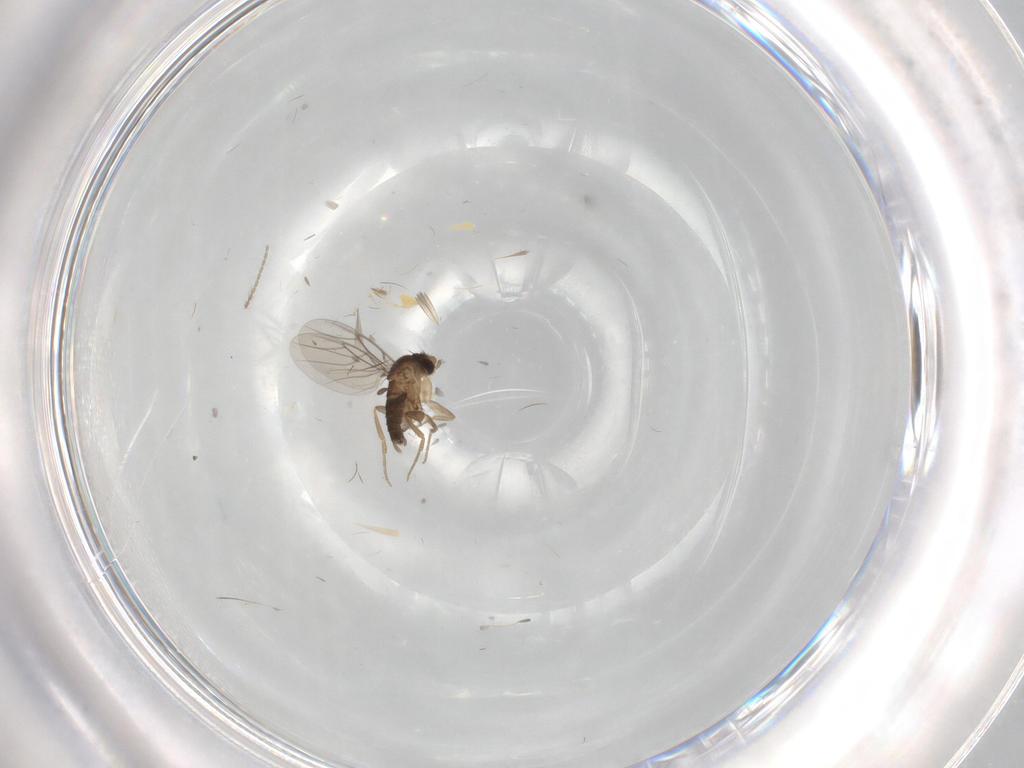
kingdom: Animalia
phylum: Arthropoda
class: Insecta
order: Diptera
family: Phoridae
